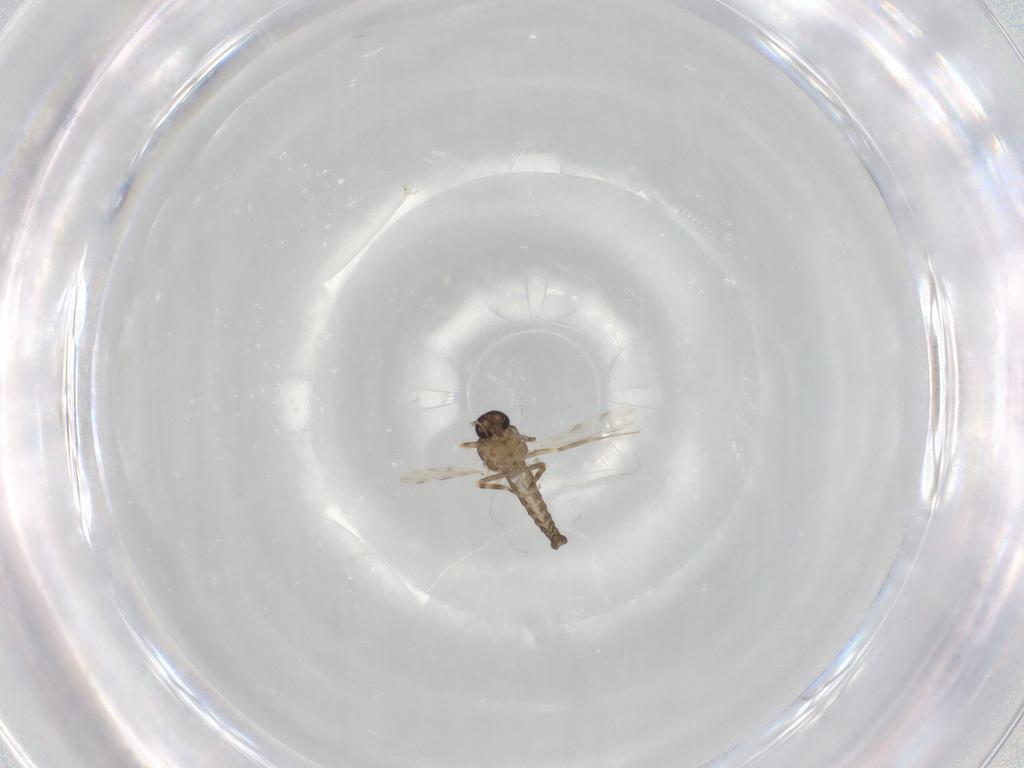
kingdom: Animalia
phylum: Arthropoda
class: Insecta
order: Diptera
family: Ceratopogonidae
